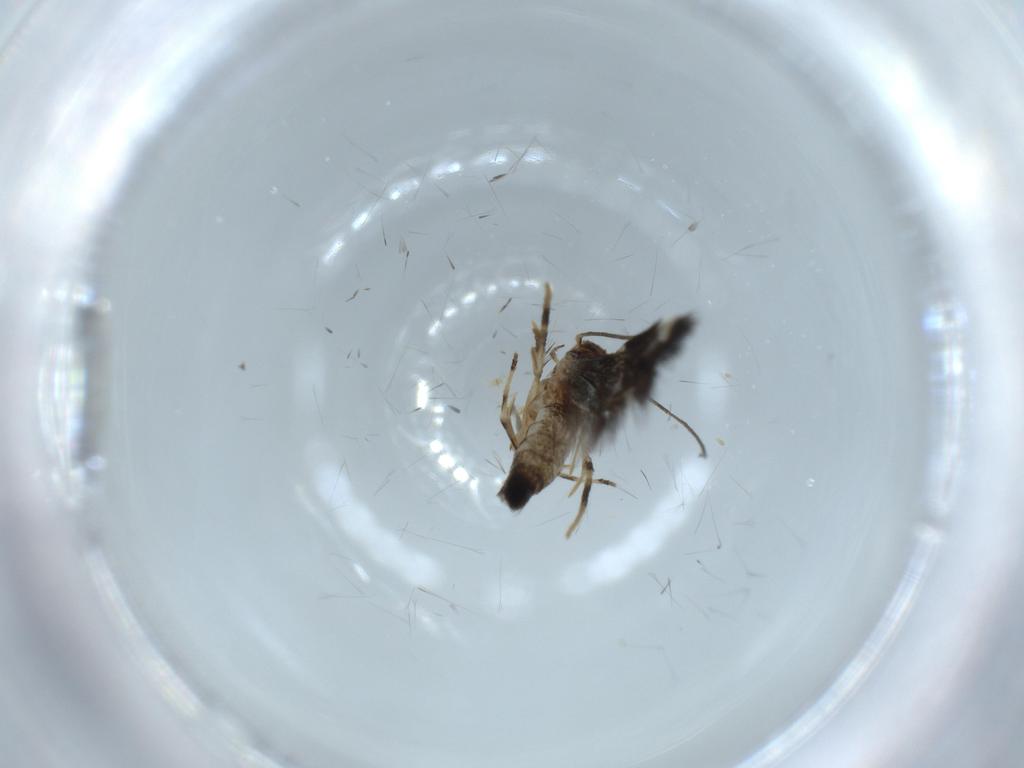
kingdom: Animalia
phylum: Arthropoda
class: Insecta
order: Lepidoptera
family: Cosmopterigidae
